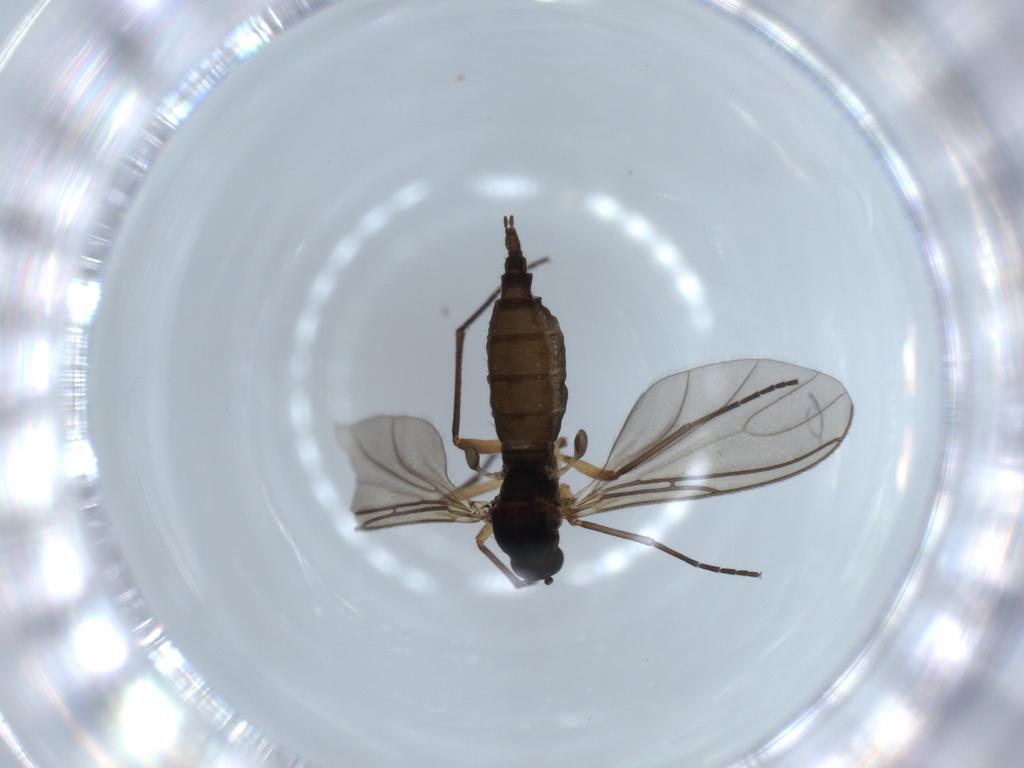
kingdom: Animalia
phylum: Arthropoda
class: Insecta
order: Diptera
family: Sciaridae
